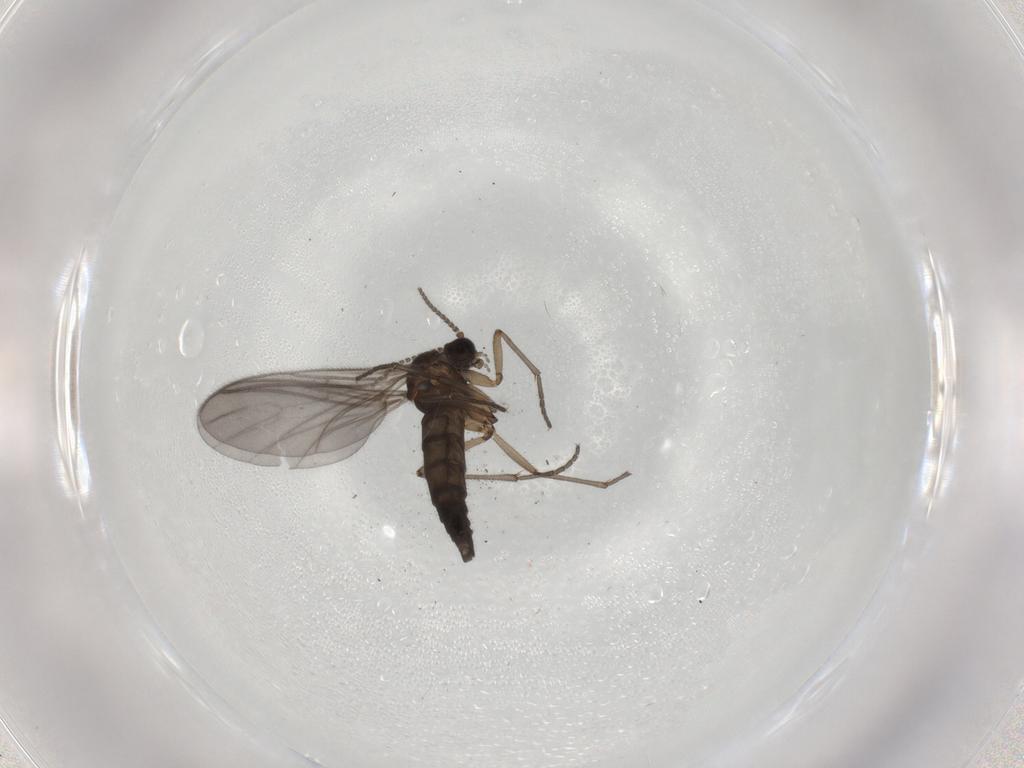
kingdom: Animalia
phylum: Arthropoda
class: Insecta
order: Diptera
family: Sciaridae
